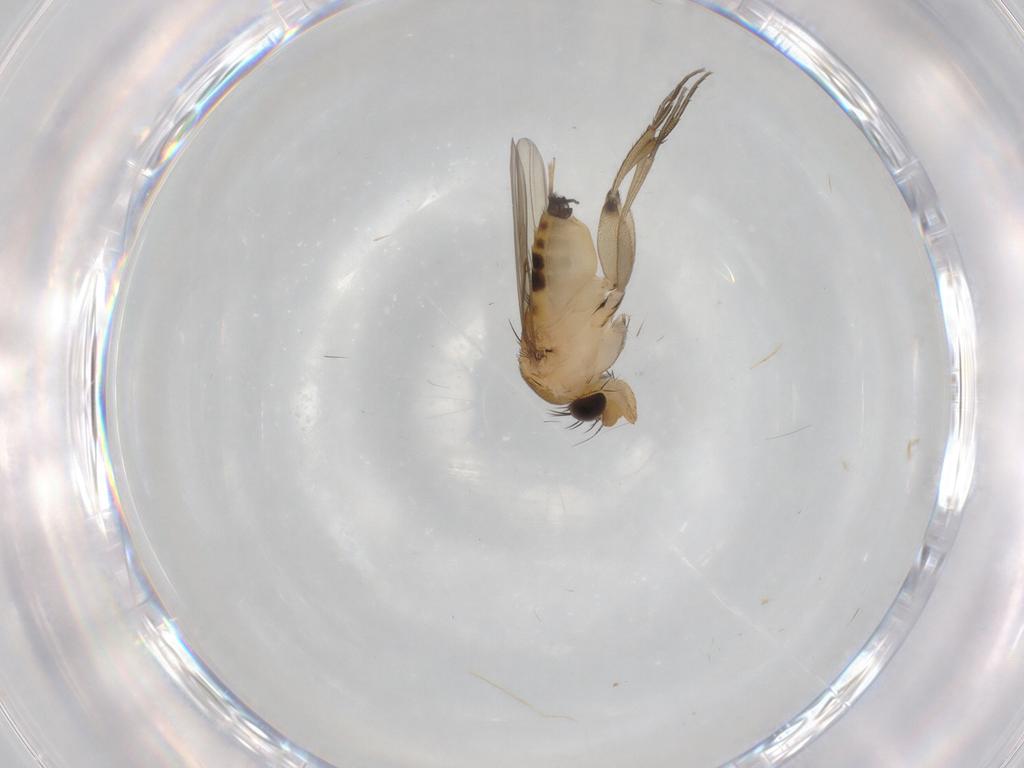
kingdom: Animalia
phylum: Arthropoda
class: Insecta
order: Diptera
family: Phoridae
